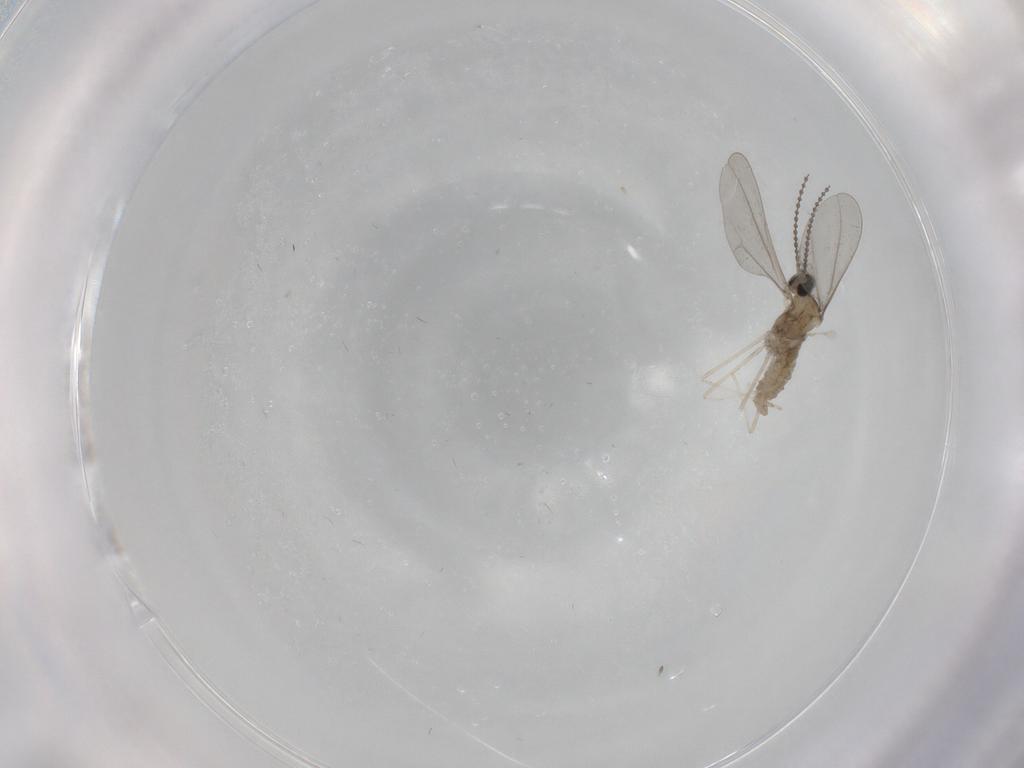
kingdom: Animalia
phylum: Arthropoda
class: Insecta
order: Diptera
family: Cecidomyiidae
